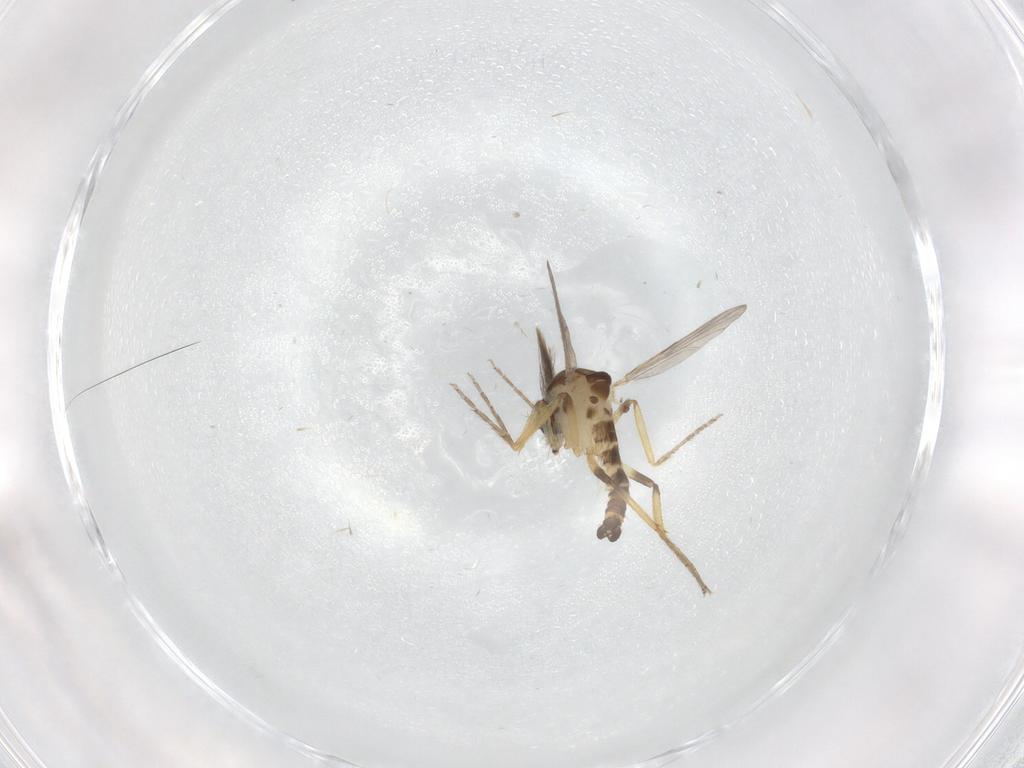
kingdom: Animalia
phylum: Arthropoda
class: Insecta
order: Diptera
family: Ceratopogonidae
